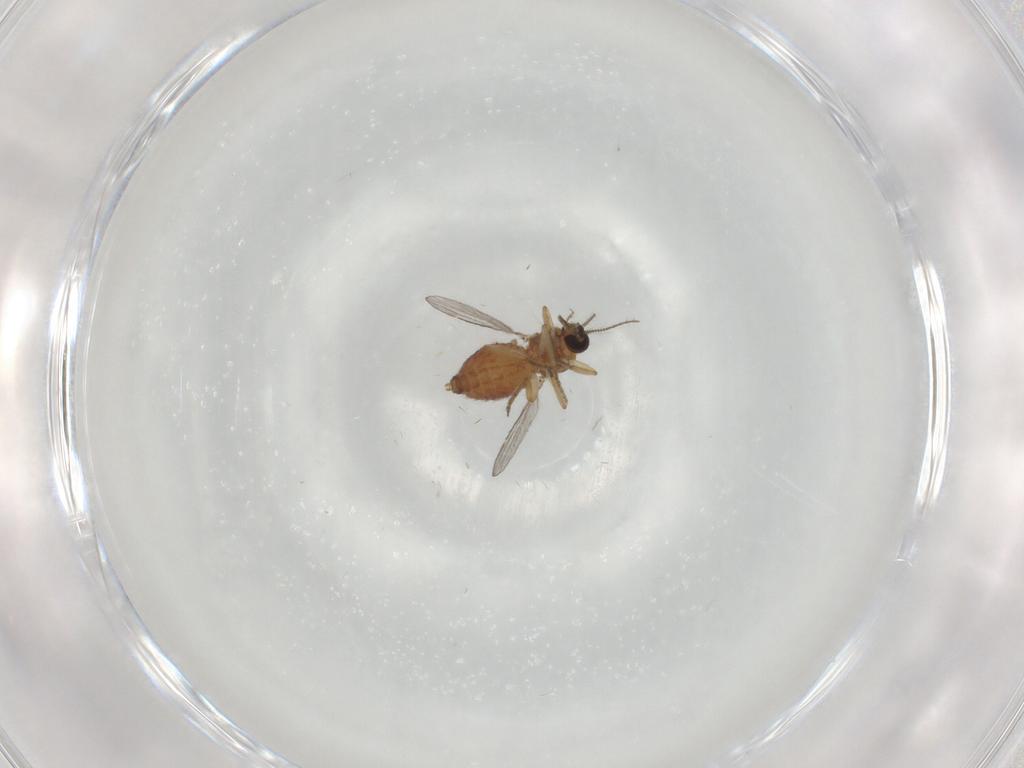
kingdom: Animalia
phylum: Arthropoda
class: Insecta
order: Diptera
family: Ceratopogonidae
